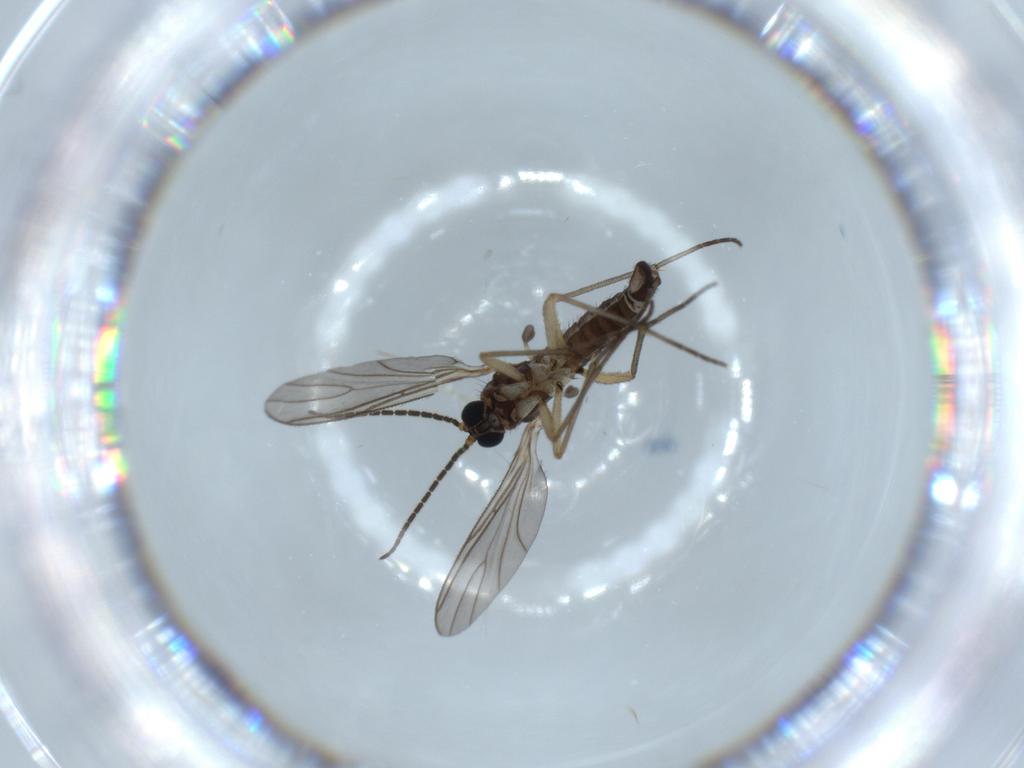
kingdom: Animalia
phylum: Arthropoda
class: Insecta
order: Diptera
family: Sciaridae
